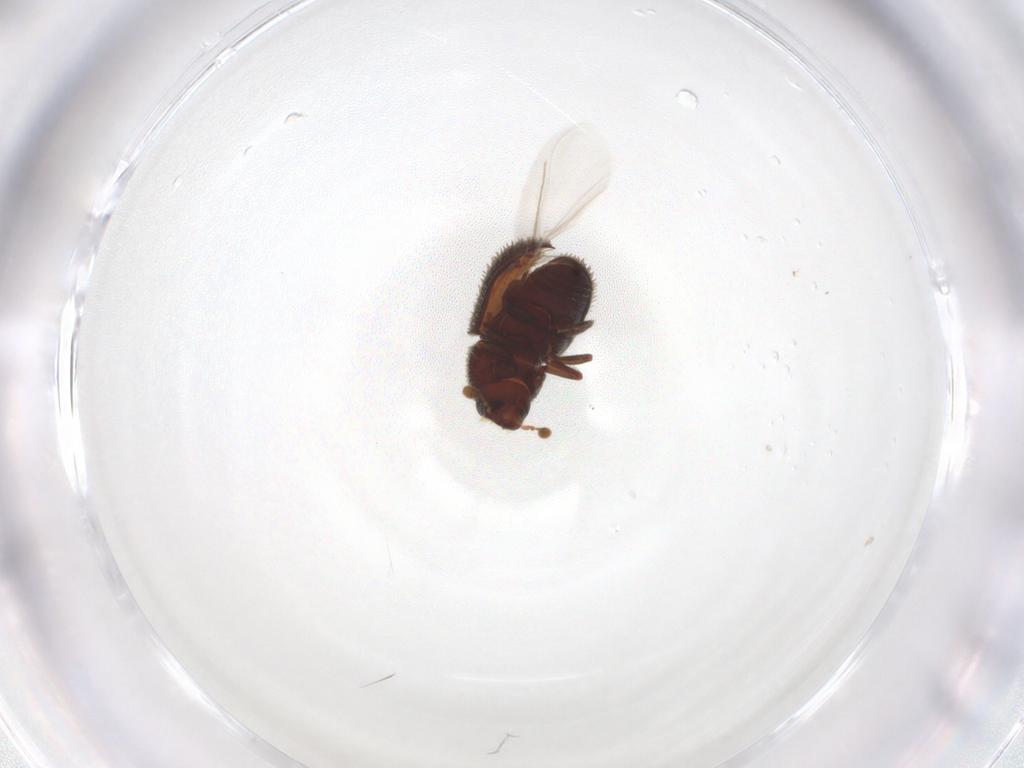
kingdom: Animalia
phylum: Arthropoda
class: Insecta
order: Coleoptera
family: Curculionidae
